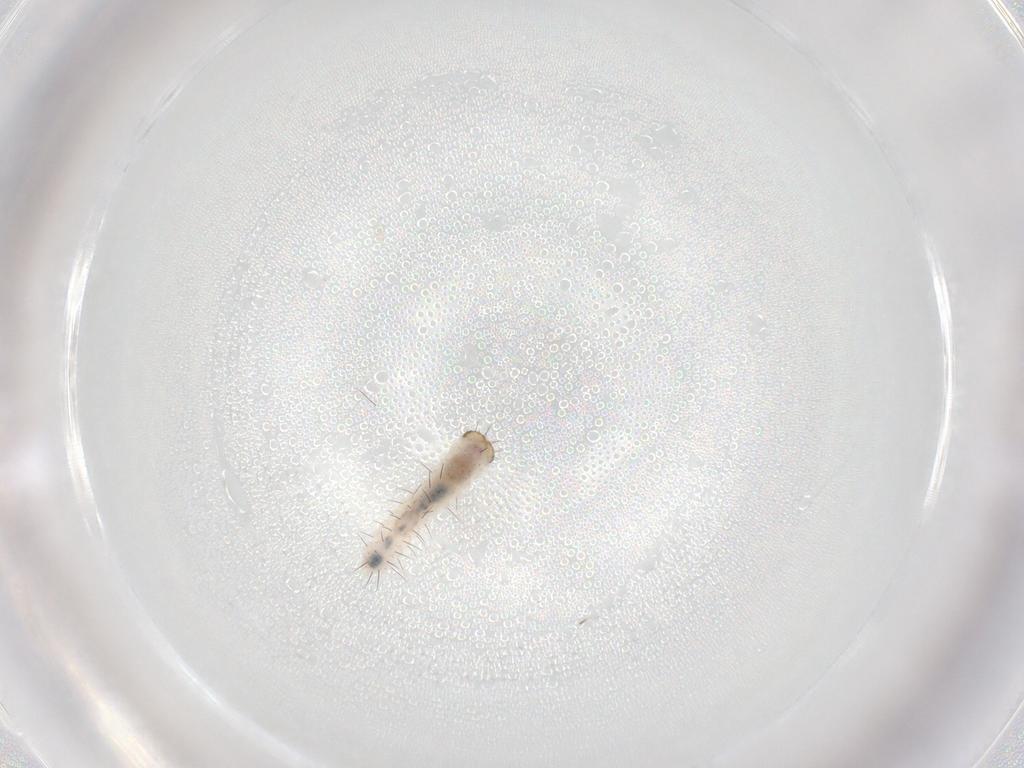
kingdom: Animalia
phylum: Arthropoda
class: Insecta
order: Lepidoptera
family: Erebidae
